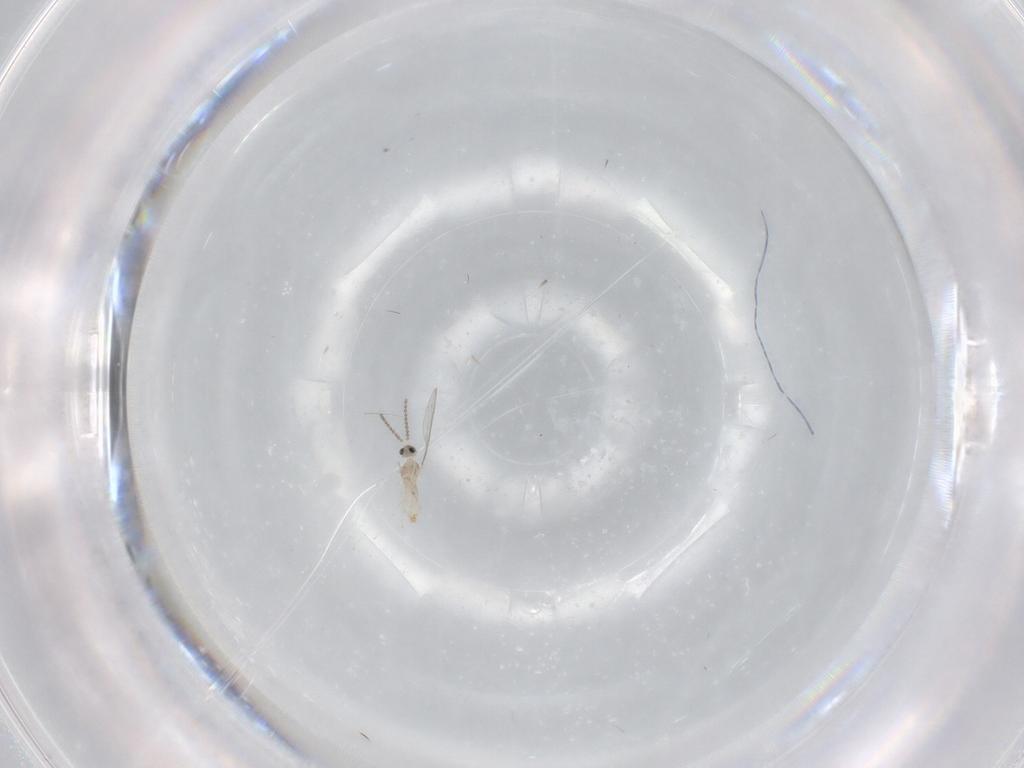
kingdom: Animalia
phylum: Arthropoda
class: Insecta
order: Diptera
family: Cecidomyiidae
